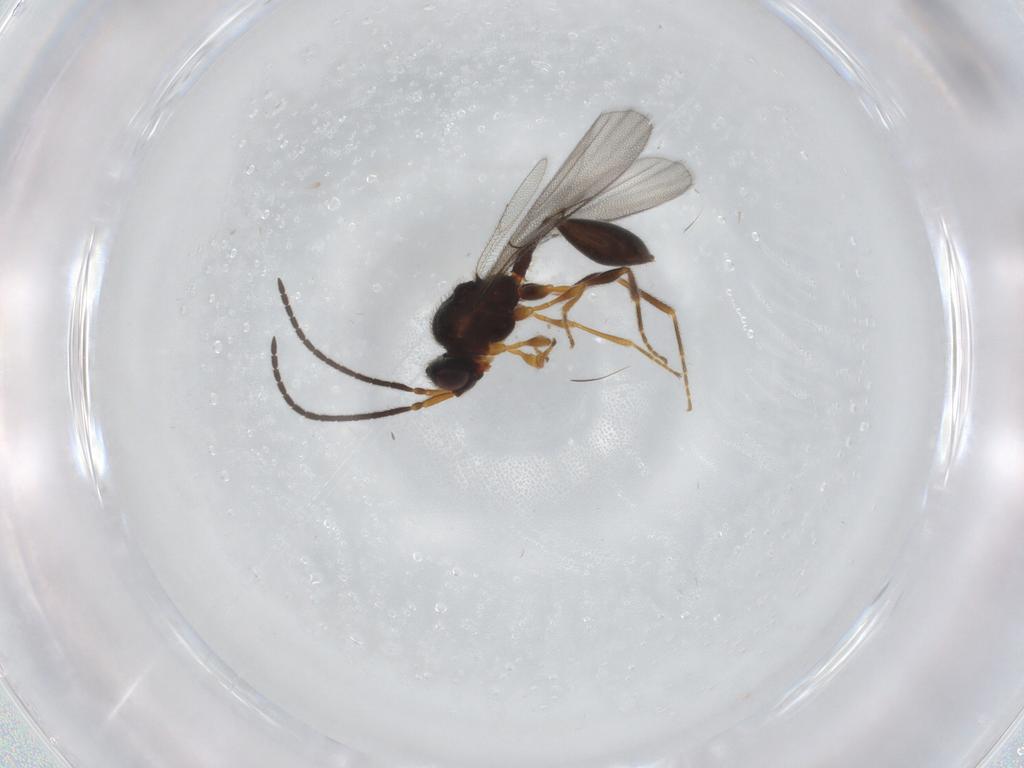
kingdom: Animalia
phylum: Arthropoda
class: Insecta
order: Hymenoptera
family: Diapriidae
